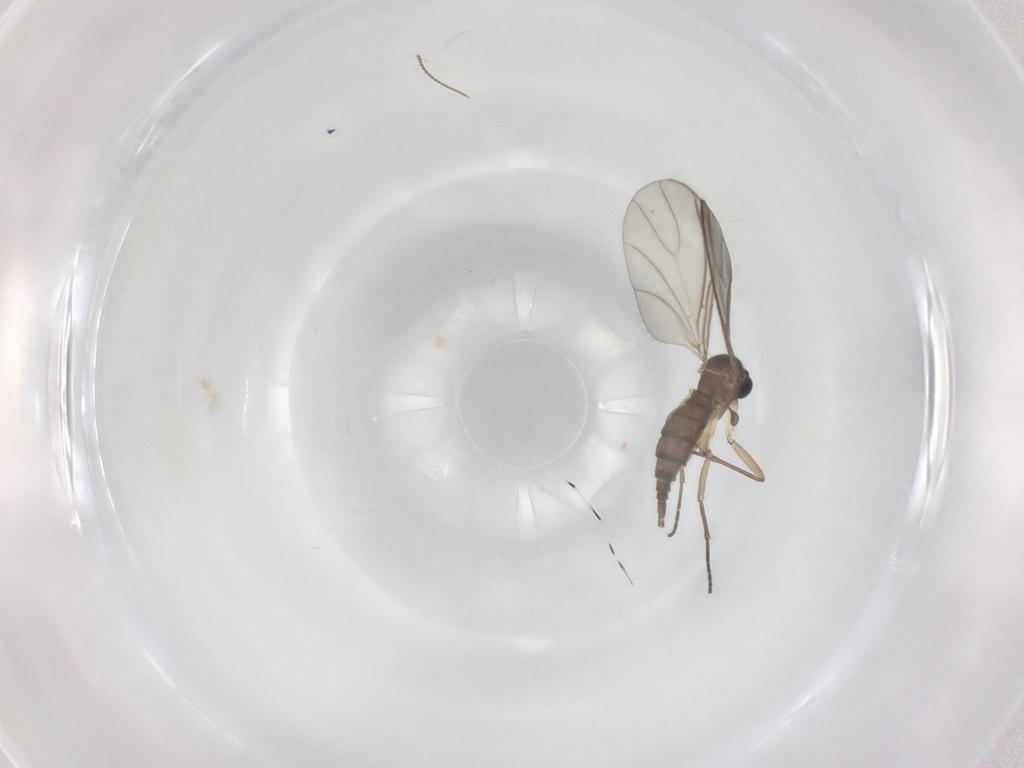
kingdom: Animalia
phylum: Arthropoda
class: Insecta
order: Diptera
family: Sciaridae
